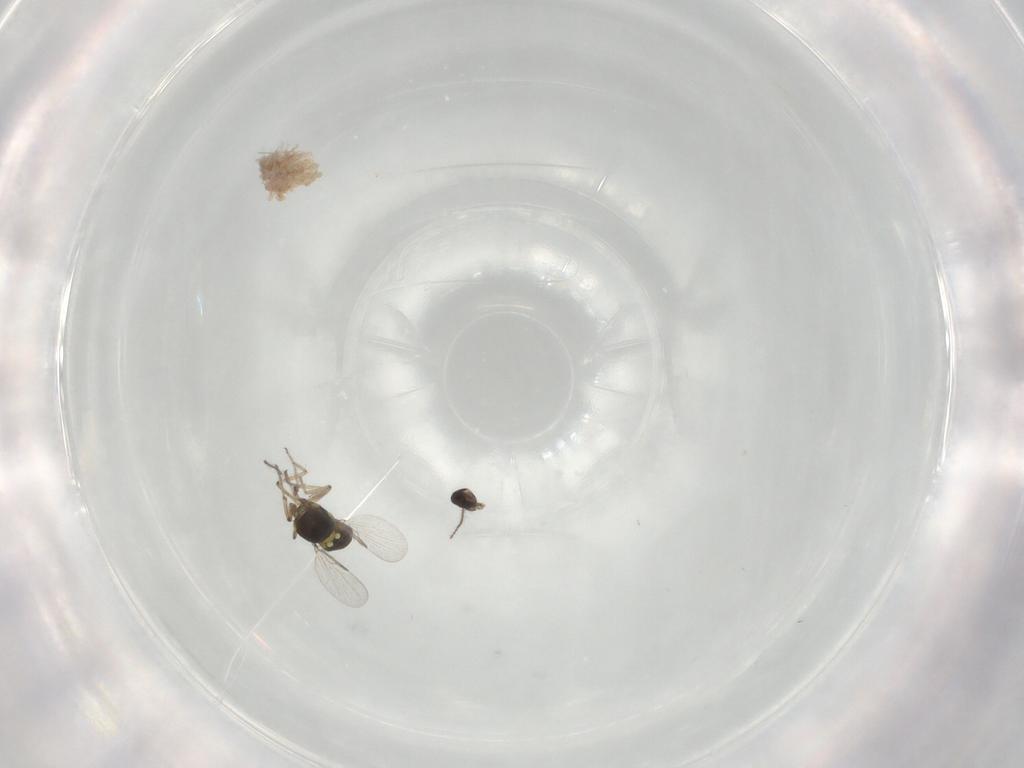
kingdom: Animalia
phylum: Arthropoda
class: Insecta
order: Diptera
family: Ceratopogonidae
